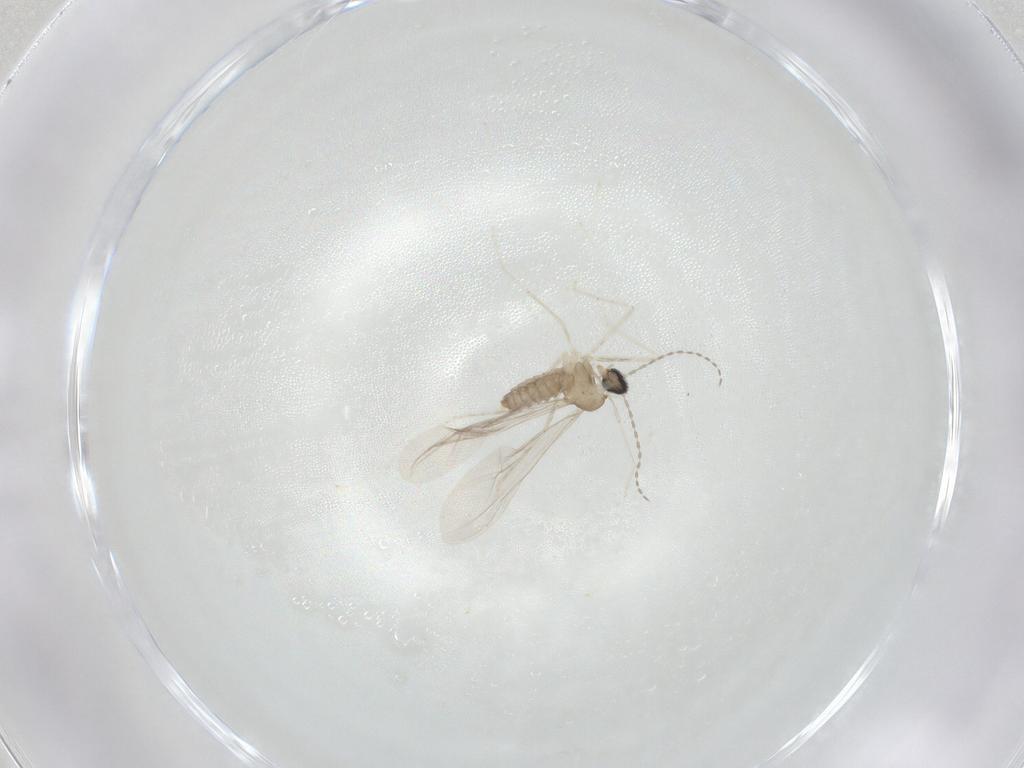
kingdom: Animalia
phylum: Arthropoda
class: Insecta
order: Diptera
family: Cecidomyiidae
